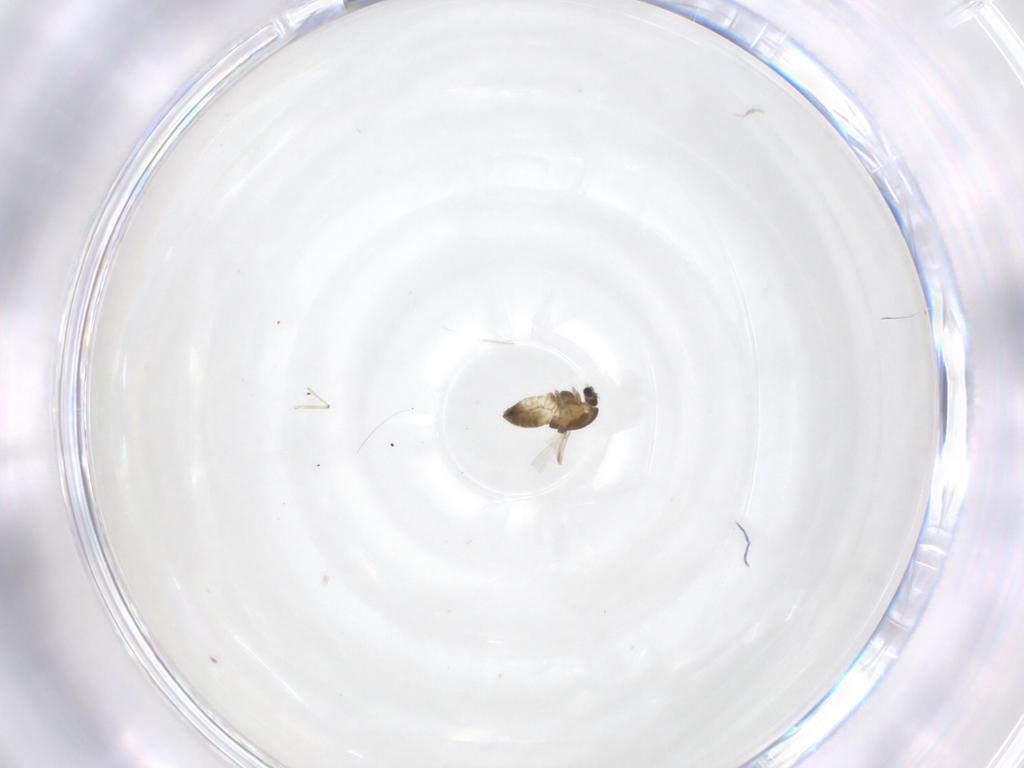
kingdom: Animalia
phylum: Arthropoda
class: Insecta
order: Diptera
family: Chironomidae
